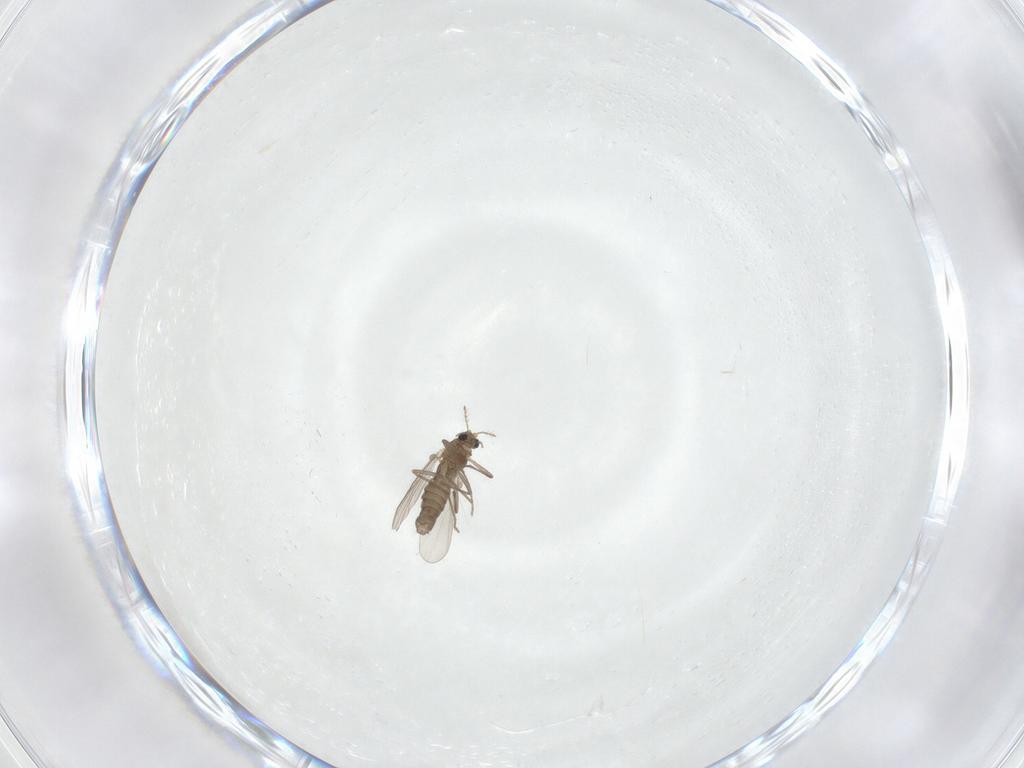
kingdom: Animalia
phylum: Arthropoda
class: Insecta
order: Diptera
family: Chironomidae
